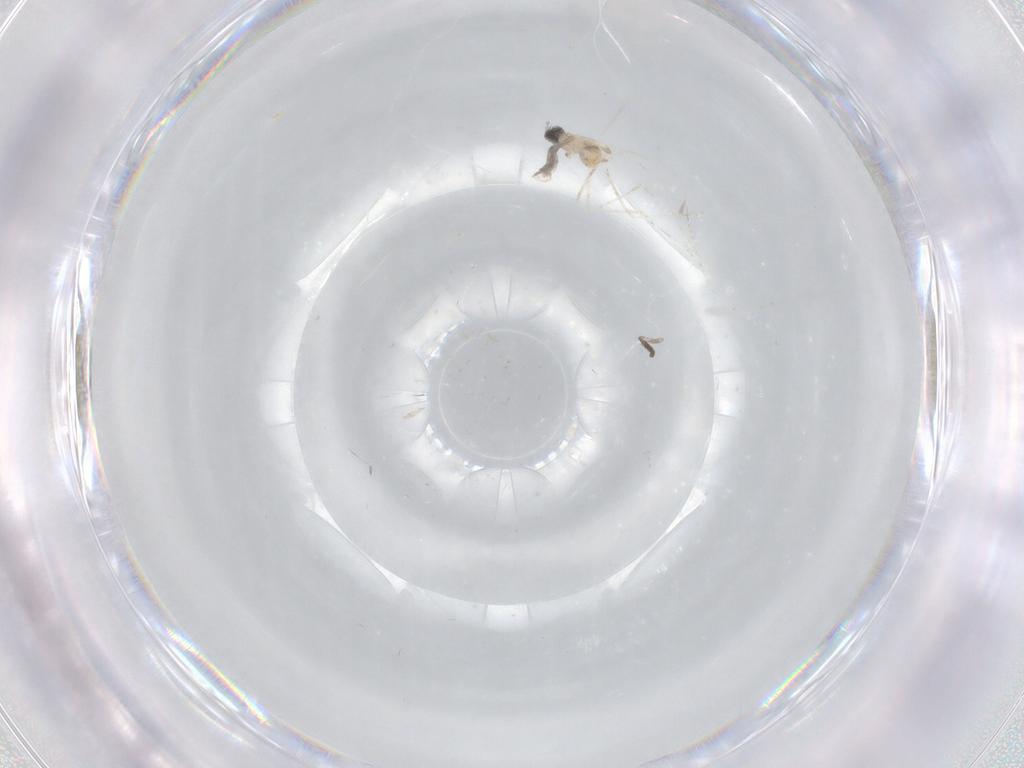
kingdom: Animalia
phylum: Arthropoda
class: Insecta
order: Diptera
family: Cecidomyiidae
